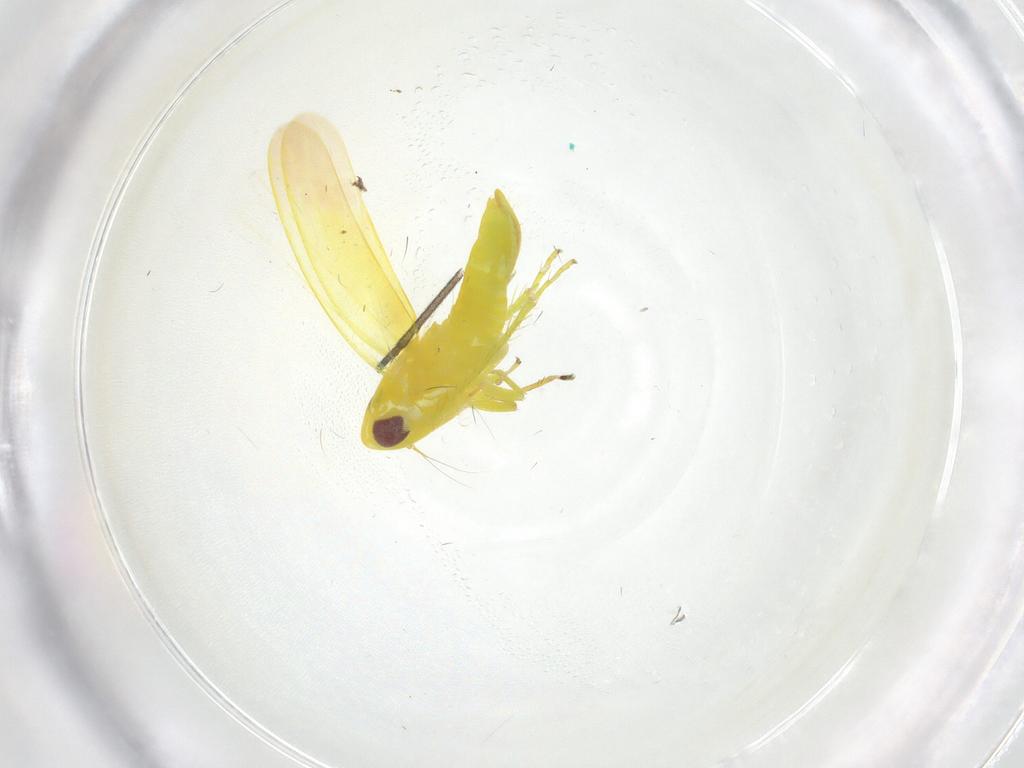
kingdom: Animalia
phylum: Arthropoda
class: Insecta
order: Hemiptera
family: Cicadellidae
